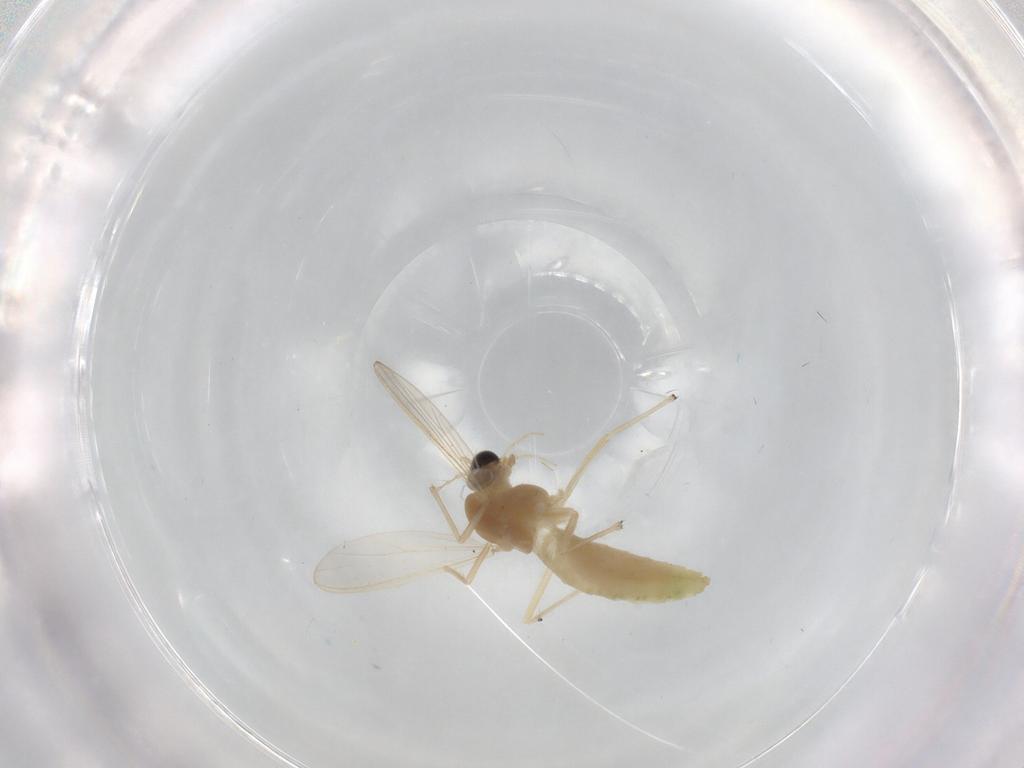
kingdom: Animalia
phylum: Arthropoda
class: Insecta
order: Diptera
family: Chironomidae
